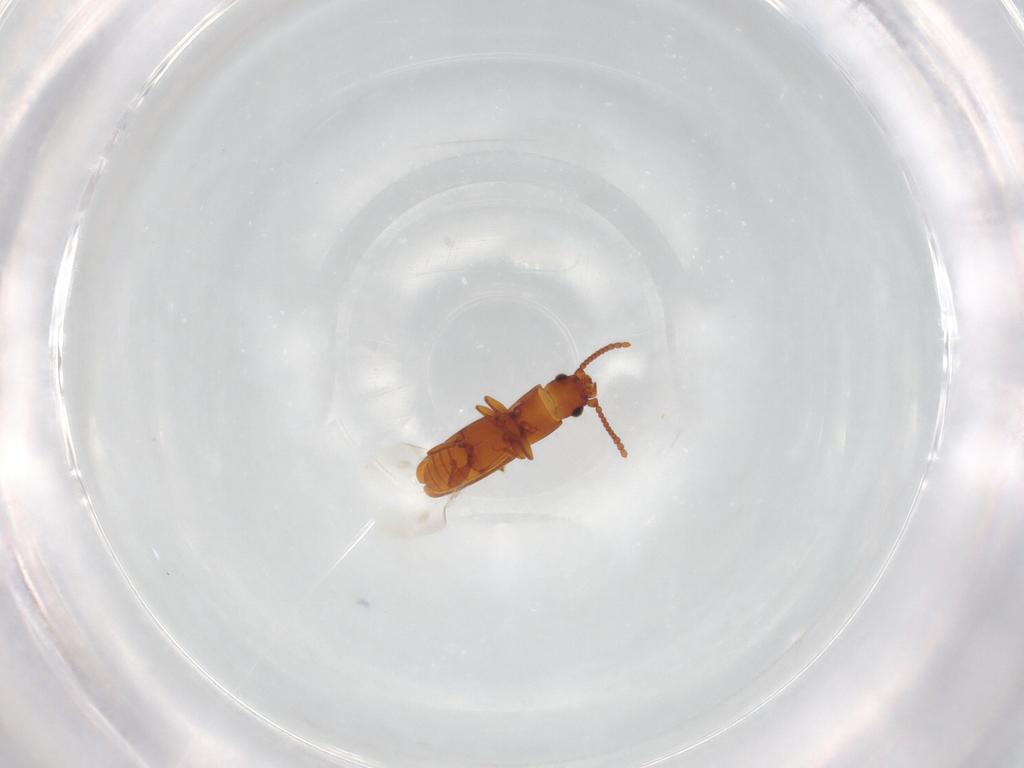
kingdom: Animalia
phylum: Arthropoda
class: Insecta
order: Coleoptera
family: Laemophloeidae
